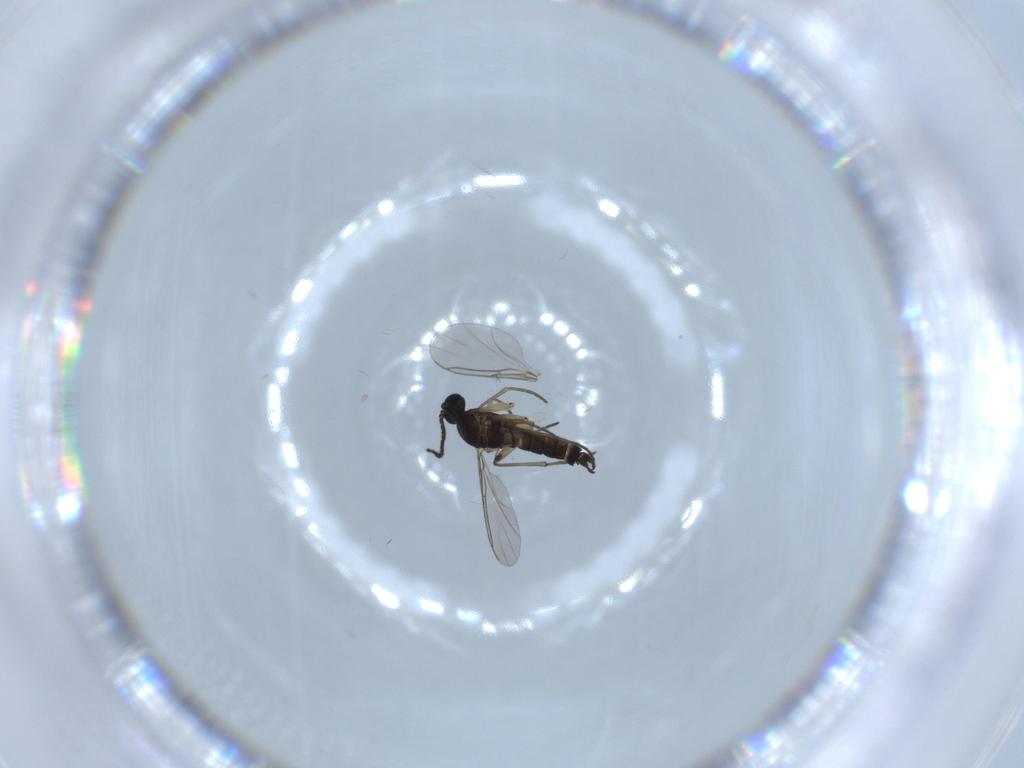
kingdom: Animalia
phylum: Arthropoda
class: Insecta
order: Diptera
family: Sciaridae
